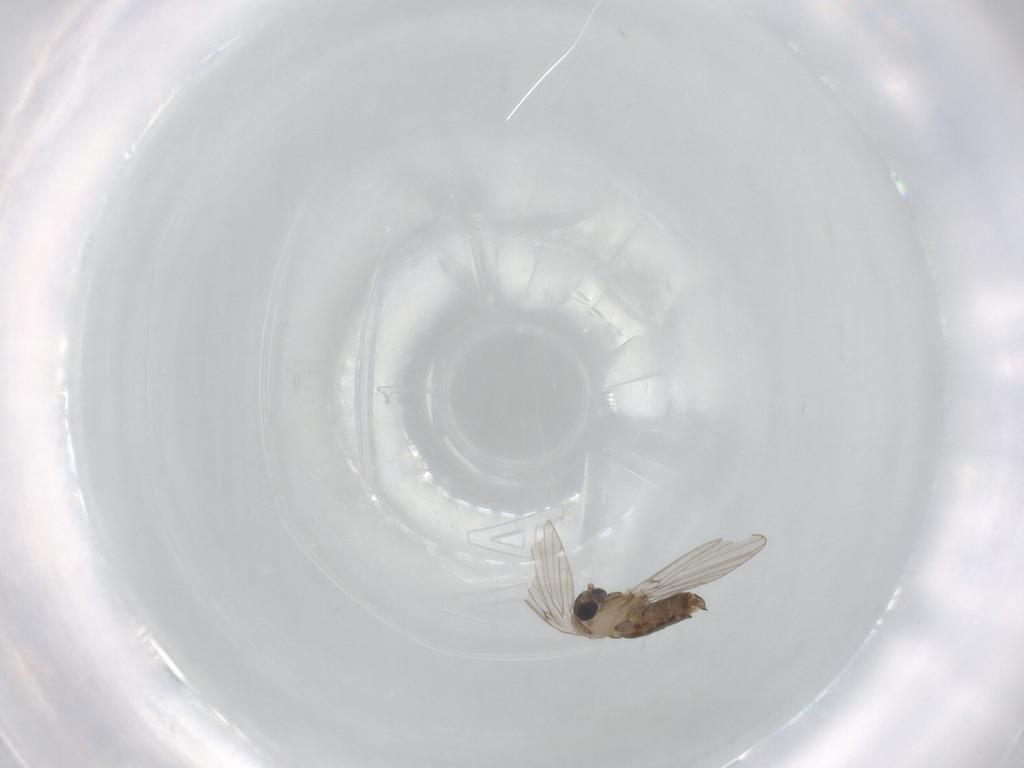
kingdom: Animalia
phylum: Arthropoda
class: Insecta
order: Diptera
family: Psychodidae
